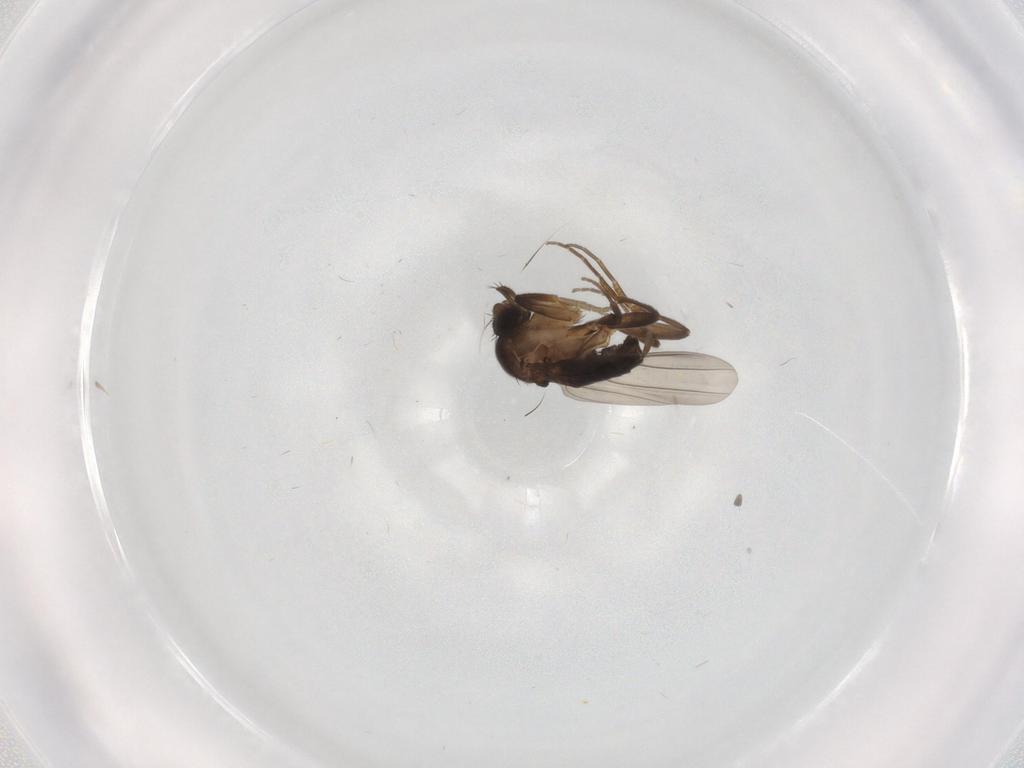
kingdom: Animalia
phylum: Arthropoda
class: Insecta
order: Diptera
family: Phoridae
